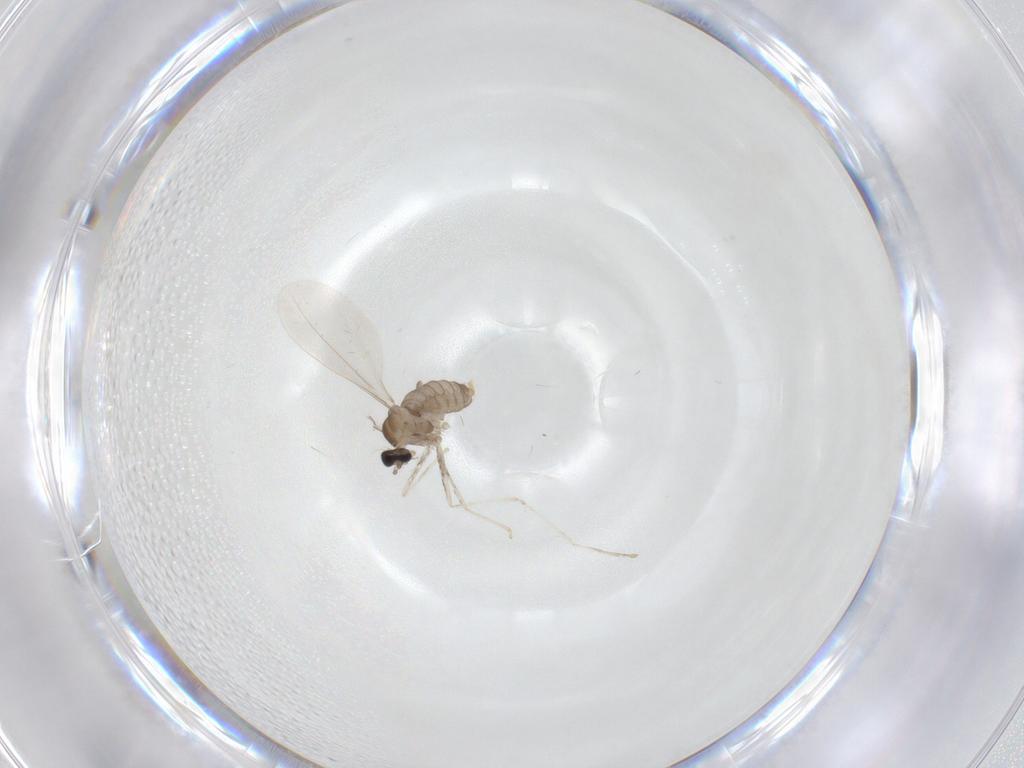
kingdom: Animalia
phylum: Arthropoda
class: Insecta
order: Diptera
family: Cecidomyiidae
